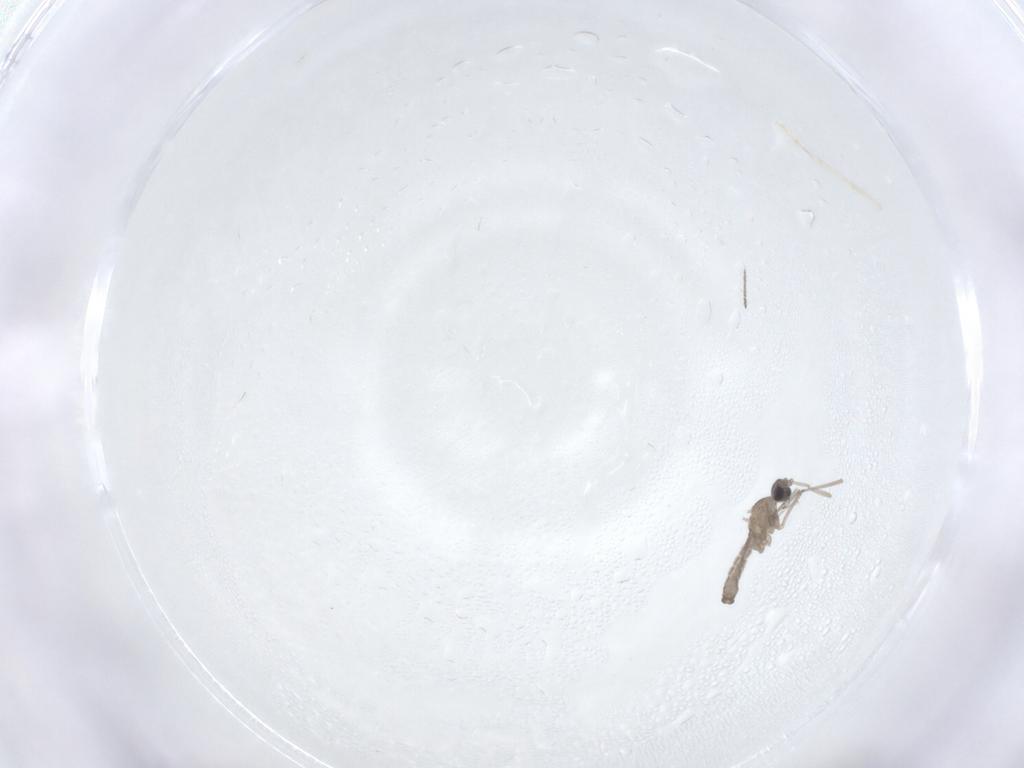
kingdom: Animalia
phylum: Arthropoda
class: Insecta
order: Diptera
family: Cecidomyiidae
